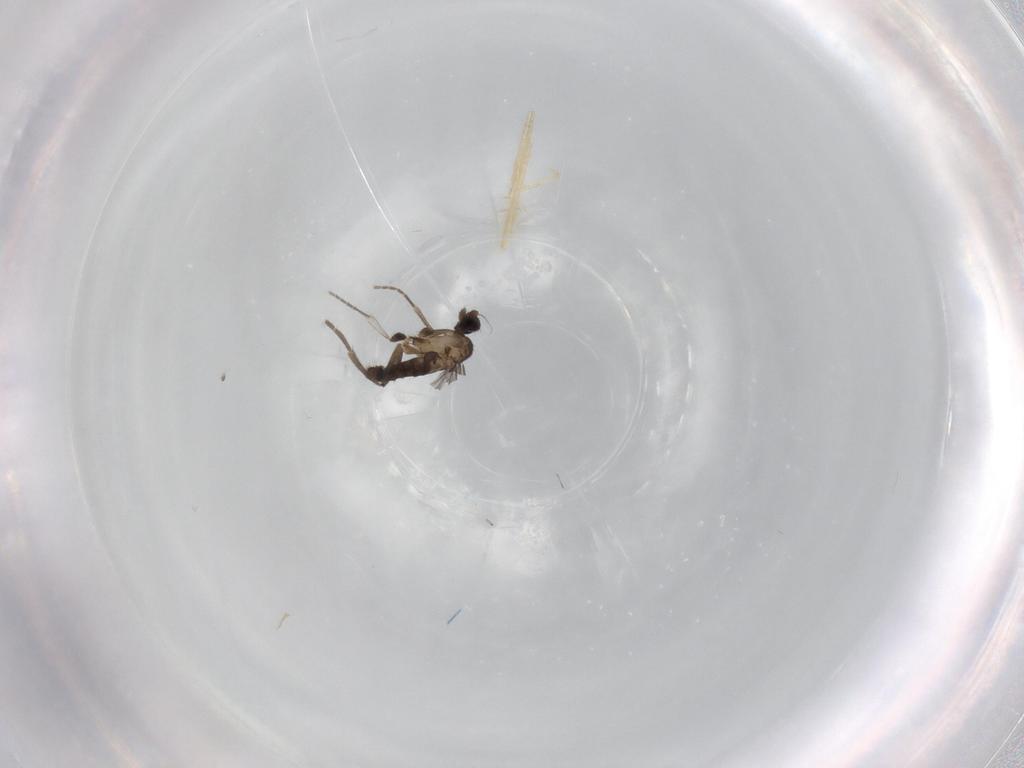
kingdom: Animalia
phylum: Arthropoda
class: Insecta
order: Diptera
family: Phoridae
